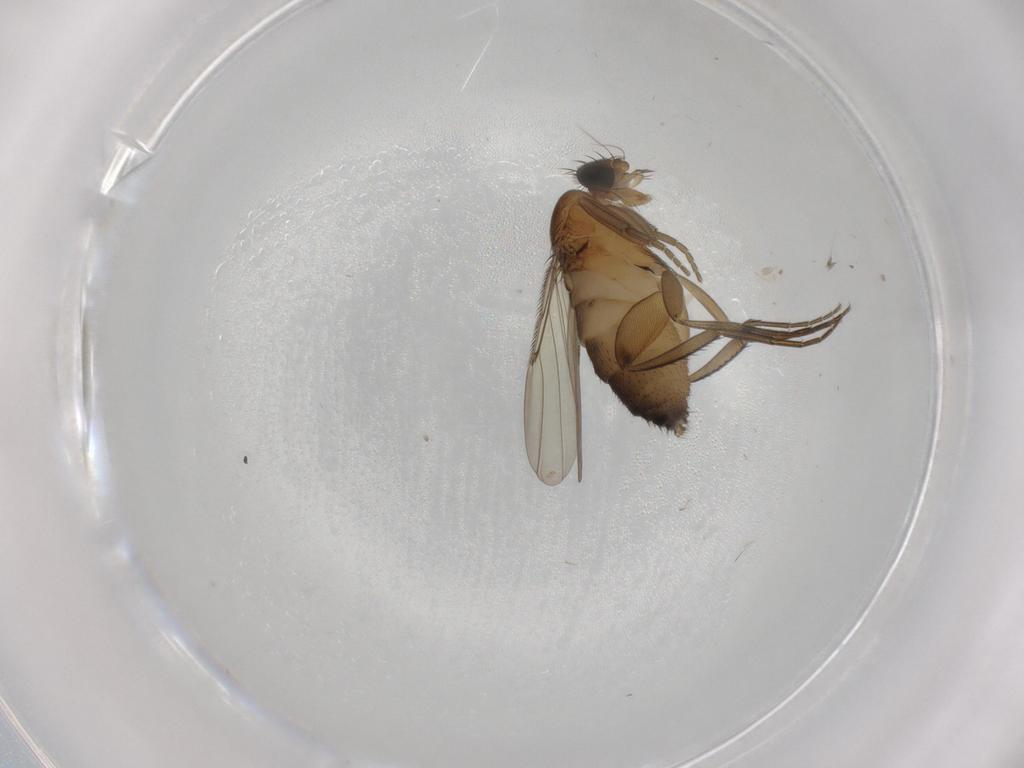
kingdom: Animalia
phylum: Arthropoda
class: Insecta
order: Diptera
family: Phoridae
